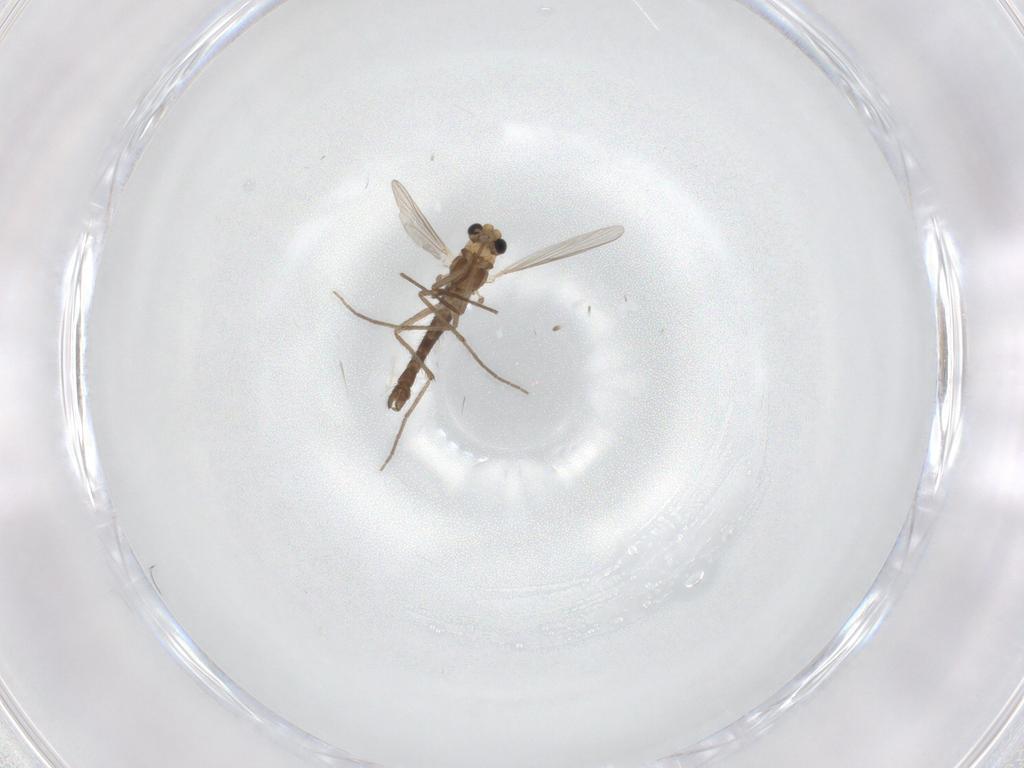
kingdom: Animalia
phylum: Arthropoda
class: Insecta
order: Diptera
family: Chironomidae
